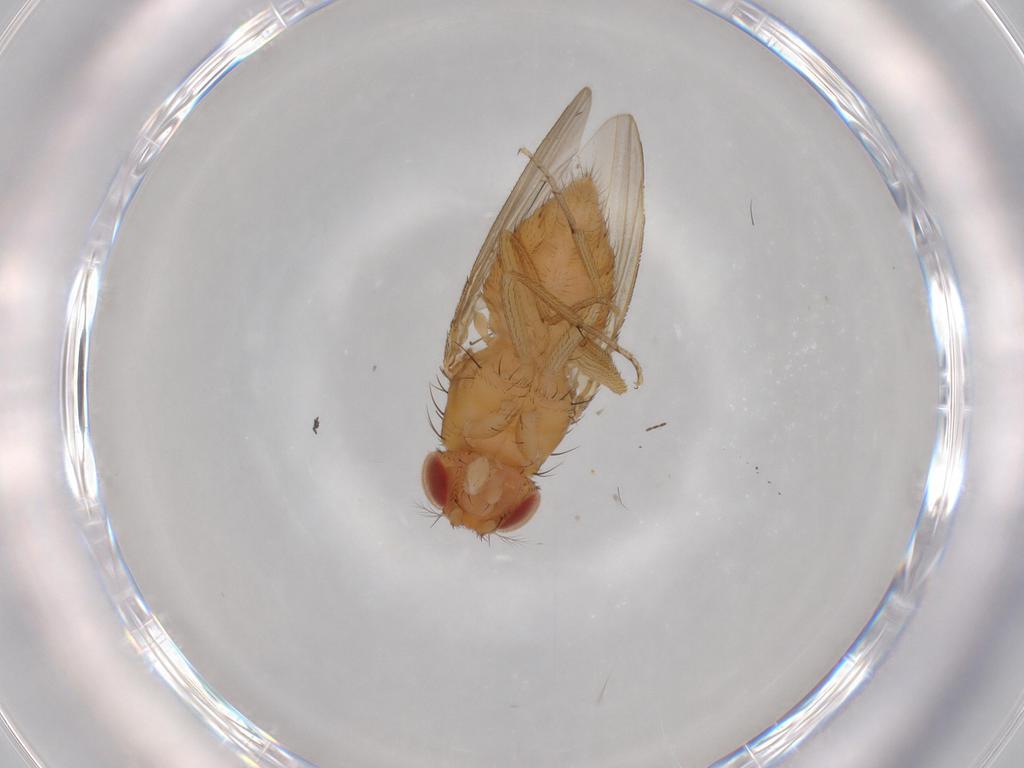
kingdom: Animalia
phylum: Arthropoda
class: Insecta
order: Diptera
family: Drosophilidae
